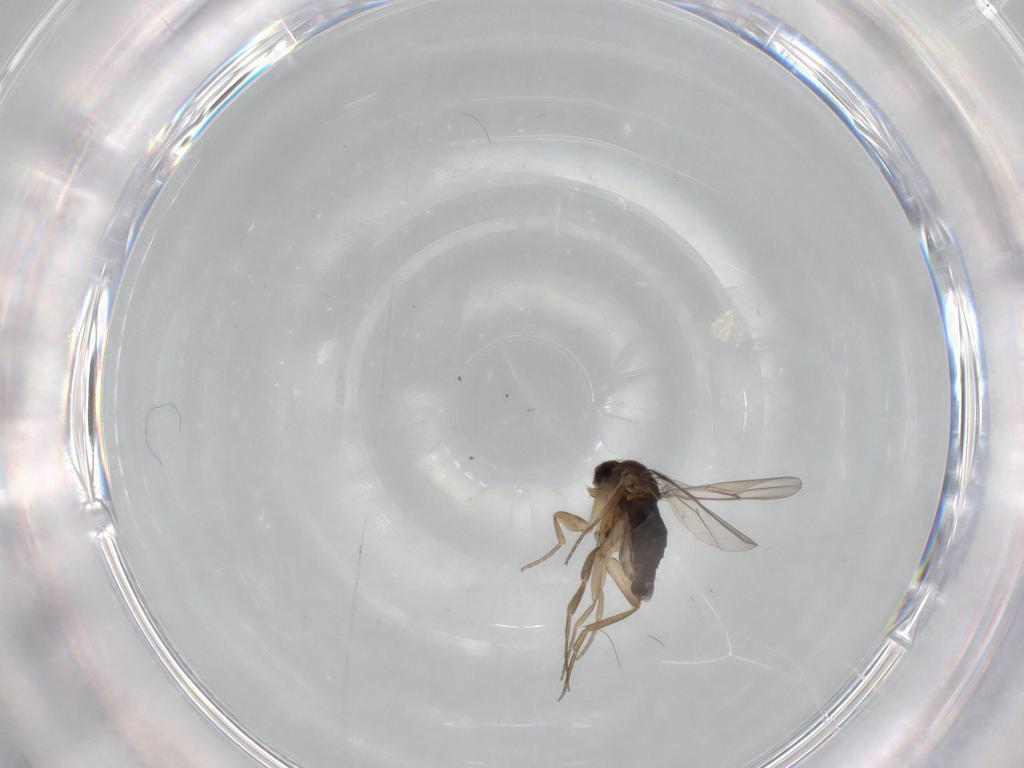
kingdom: Animalia
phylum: Arthropoda
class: Insecta
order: Diptera
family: Phoridae
